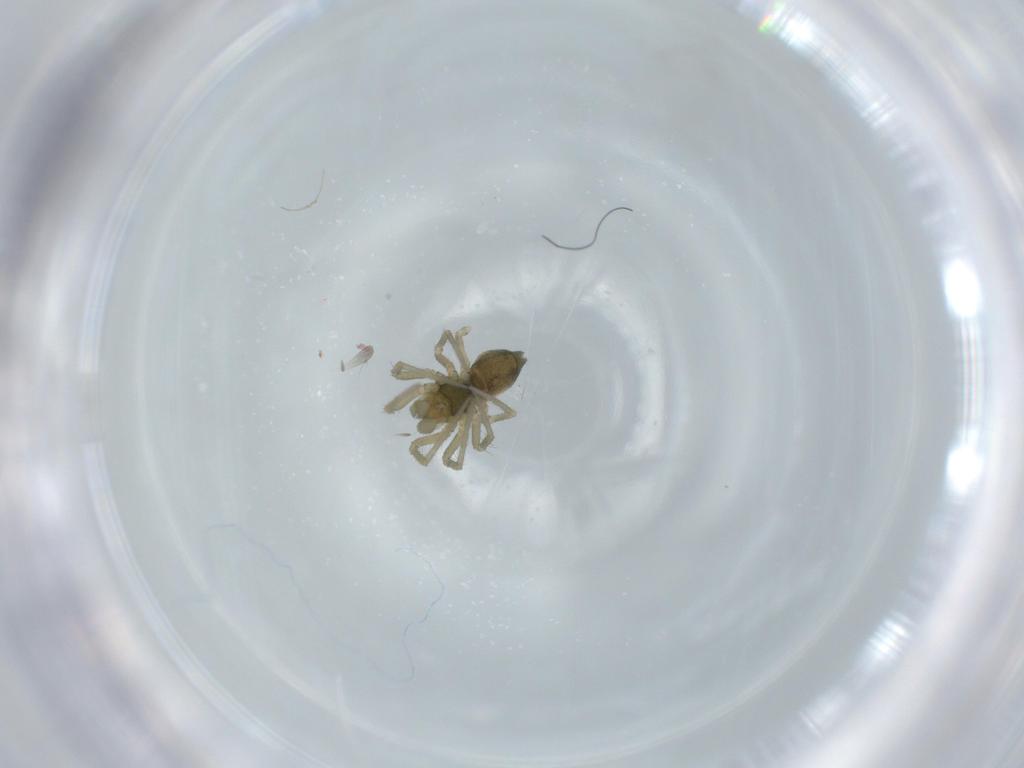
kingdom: Animalia
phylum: Arthropoda
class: Arachnida
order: Araneae
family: Linyphiidae
